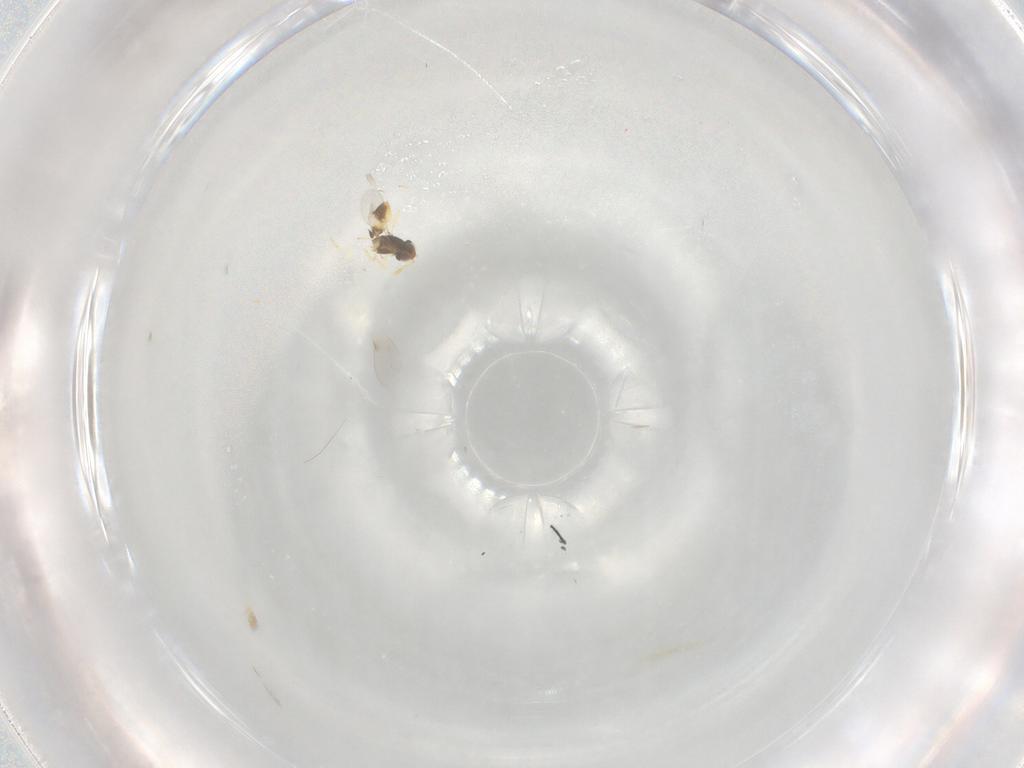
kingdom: Animalia
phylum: Arthropoda
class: Insecta
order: Hymenoptera
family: Encyrtidae
